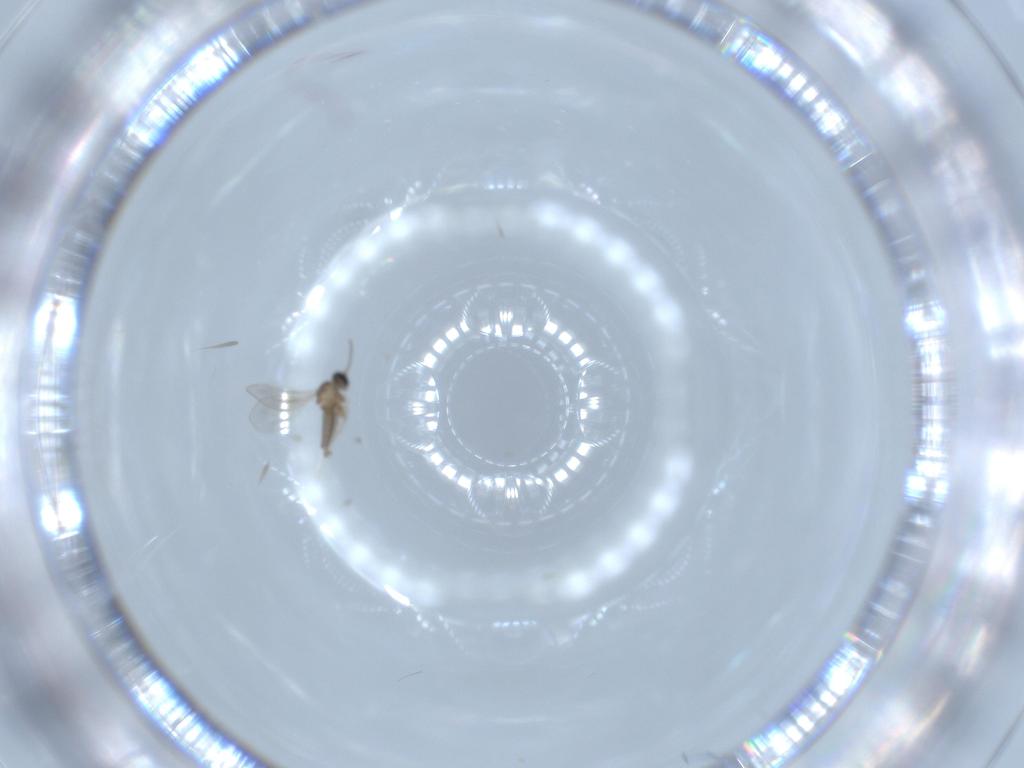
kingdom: Animalia
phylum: Arthropoda
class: Insecta
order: Diptera
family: Cecidomyiidae
